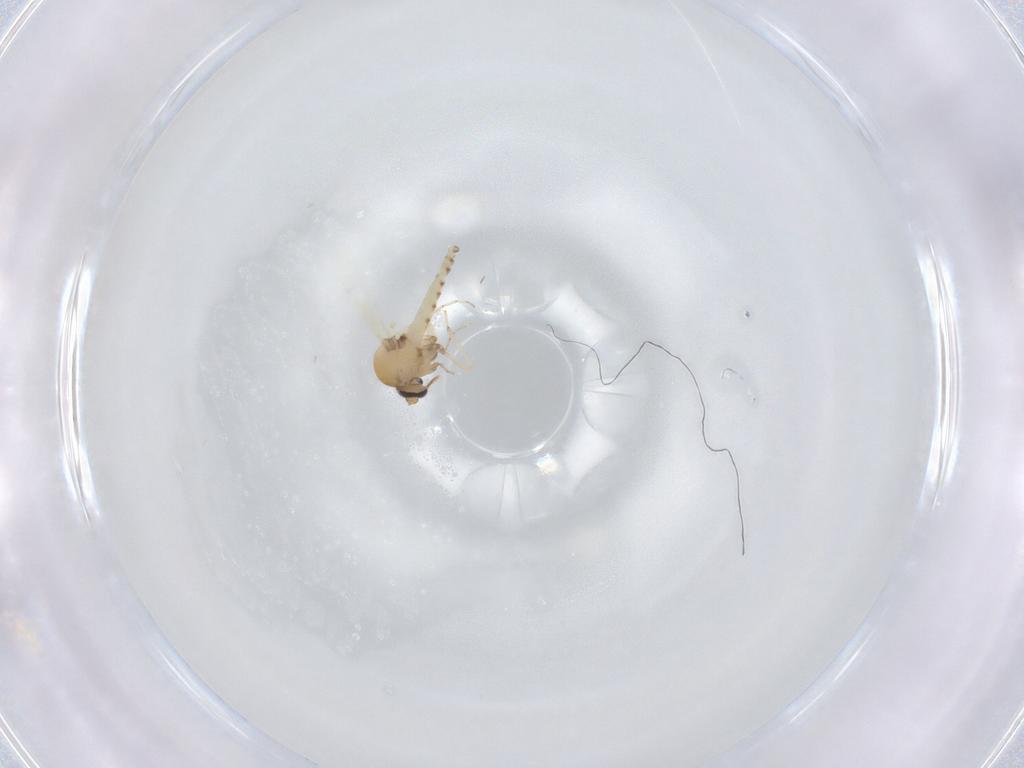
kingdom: Animalia
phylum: Arthropoda
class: Insecta
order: Diptera
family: Ceratopogonidae
